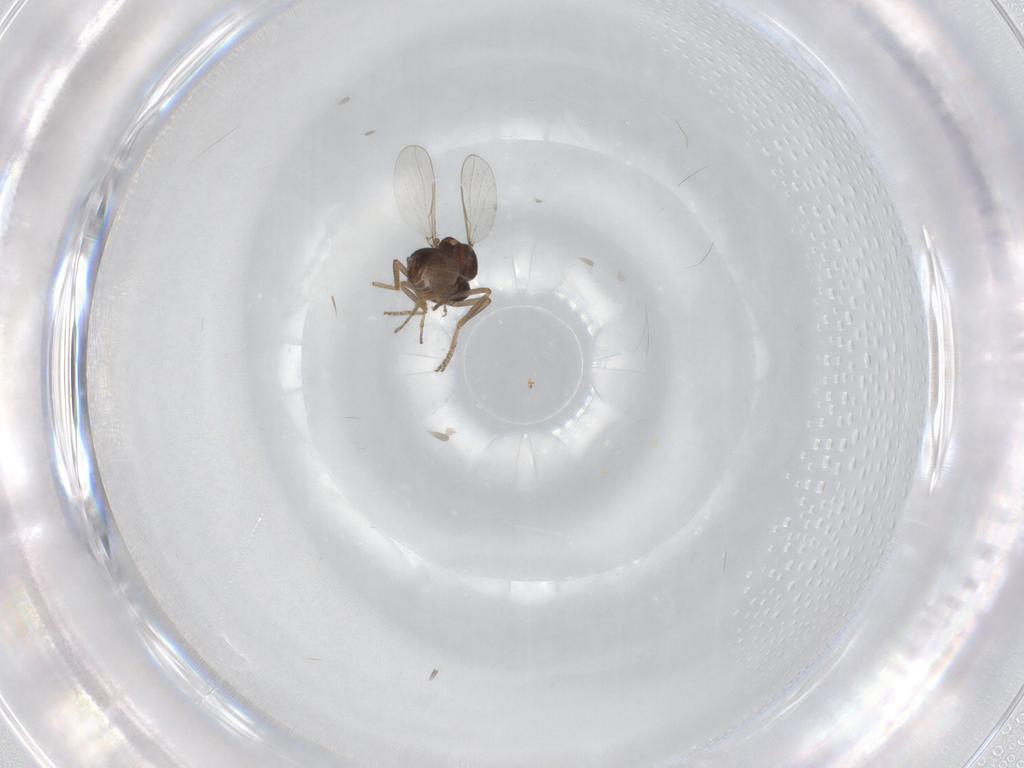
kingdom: Animalia
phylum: Arthropoda
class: Insecta
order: Diptera
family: Ceratopogonidae
